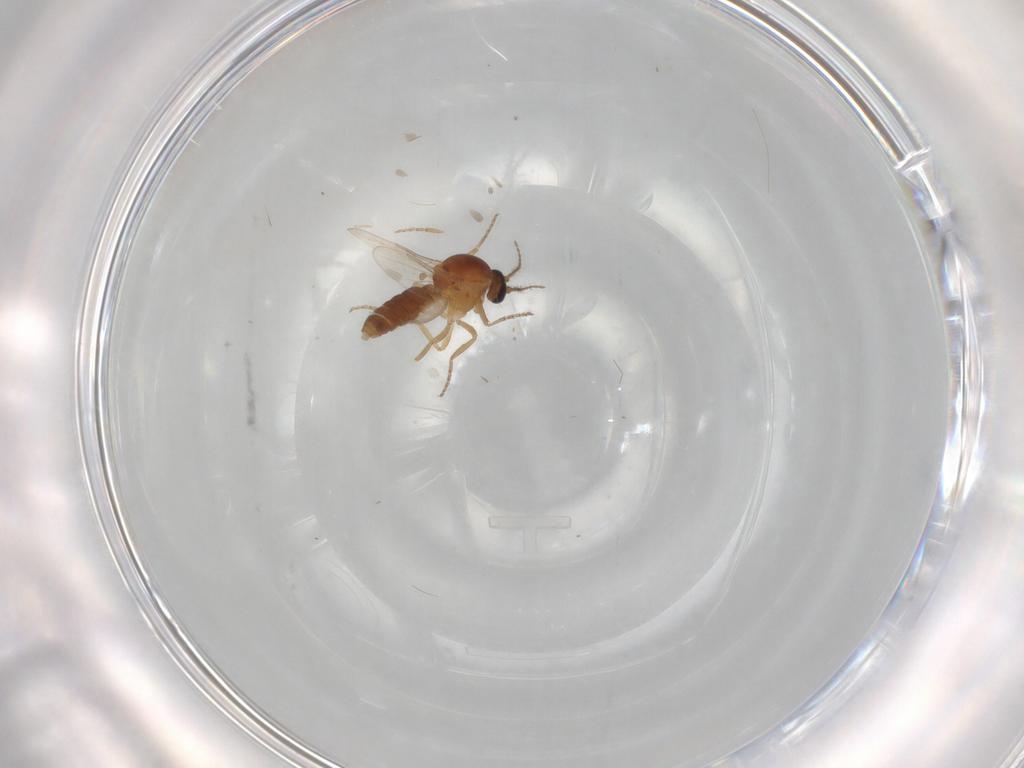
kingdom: Animalia
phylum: Arthropoda
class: Insecta
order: Diptera
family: Ceratopogonidae
